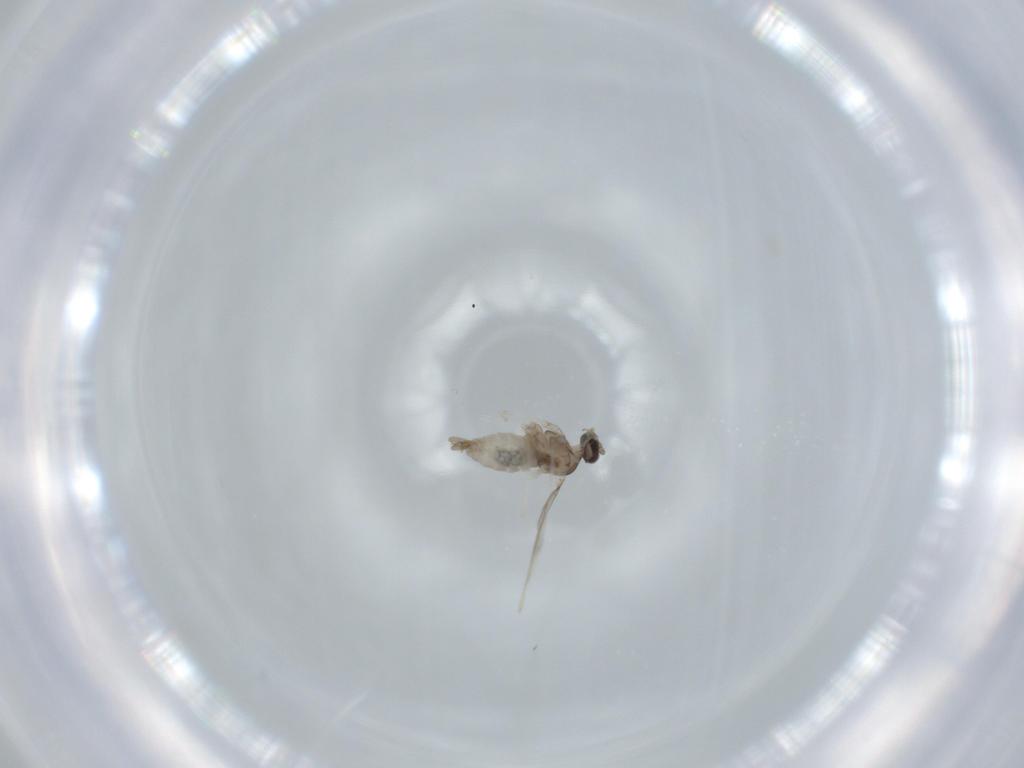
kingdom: Animalia
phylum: Arthropoda
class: Insecta
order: Diptera
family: Cecidomyiidae
